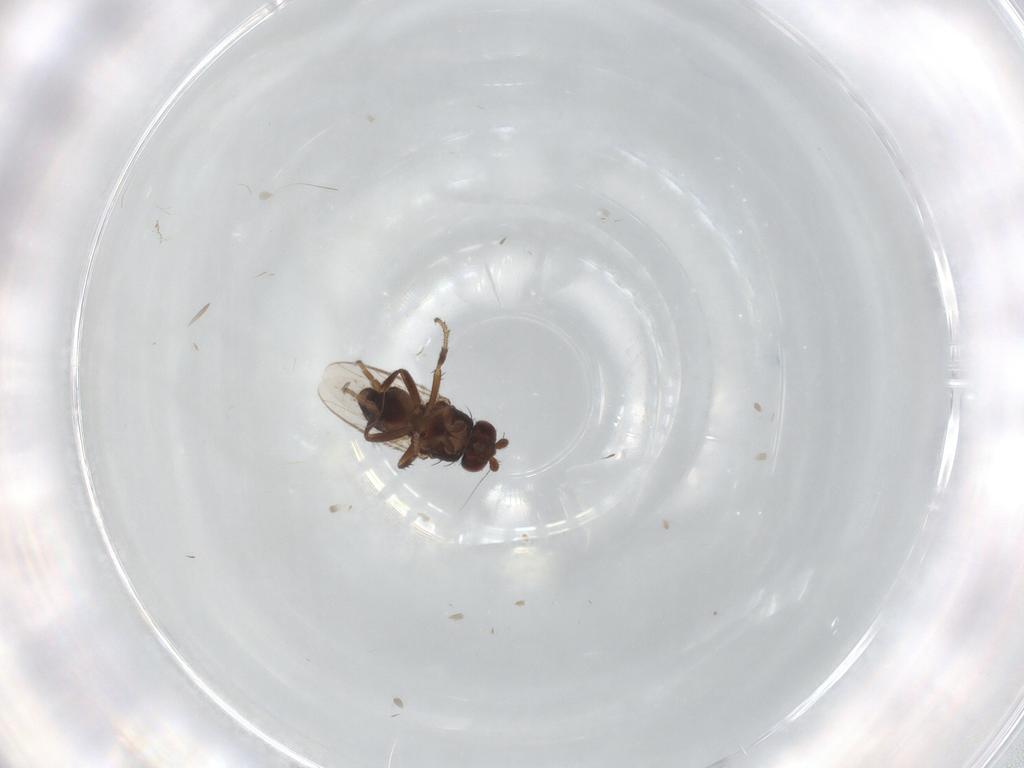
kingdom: Animalia
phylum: Arthropoda
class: Insecta
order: Diptera
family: Sphaeroceridae
